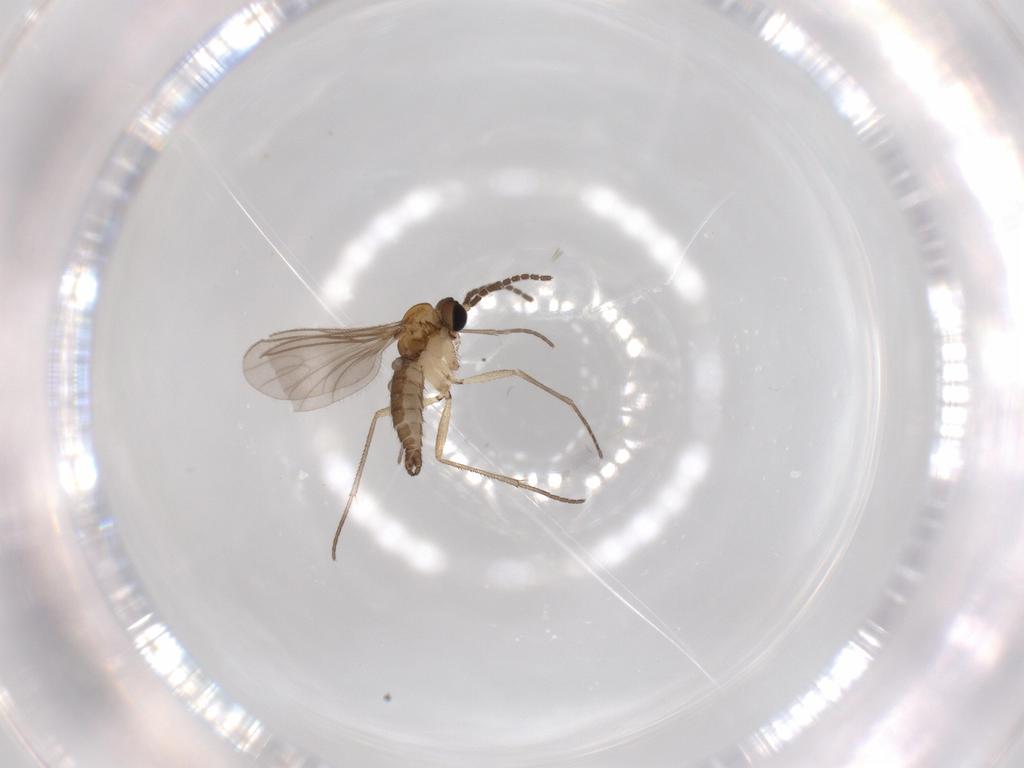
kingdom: Animalia
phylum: Arthropoda
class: Insecta
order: Diptera
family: Sciaridae
